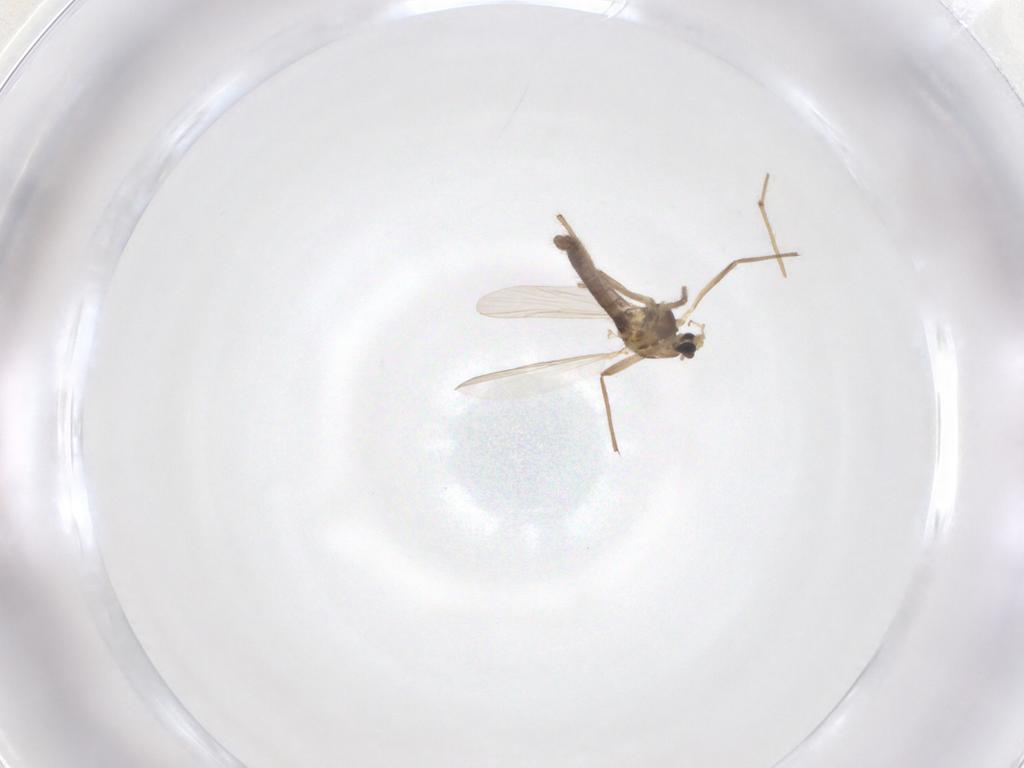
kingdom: Animalia
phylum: Arthropoda
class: Insecta
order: Diptera
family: Chironomidae
